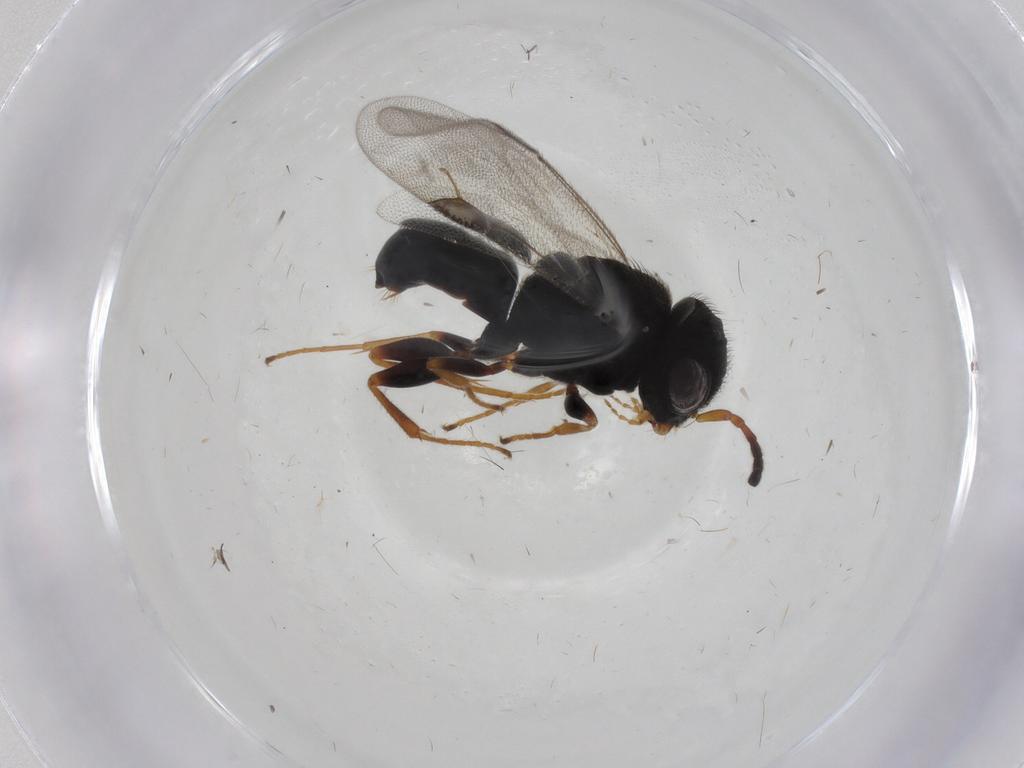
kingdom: Animalia
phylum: Arthropoda
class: Insecta
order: Hymenoptera
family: Dryinidae
